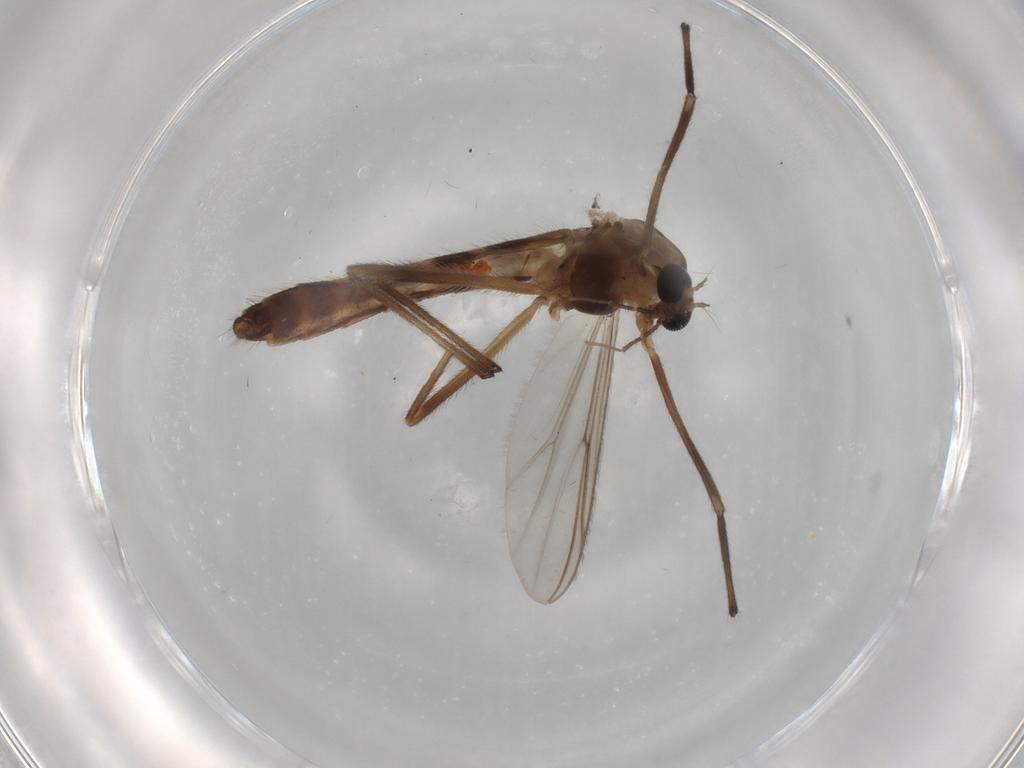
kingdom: Animalia
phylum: Arthropoda
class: Insecta
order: Diptera
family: Chironomidae
